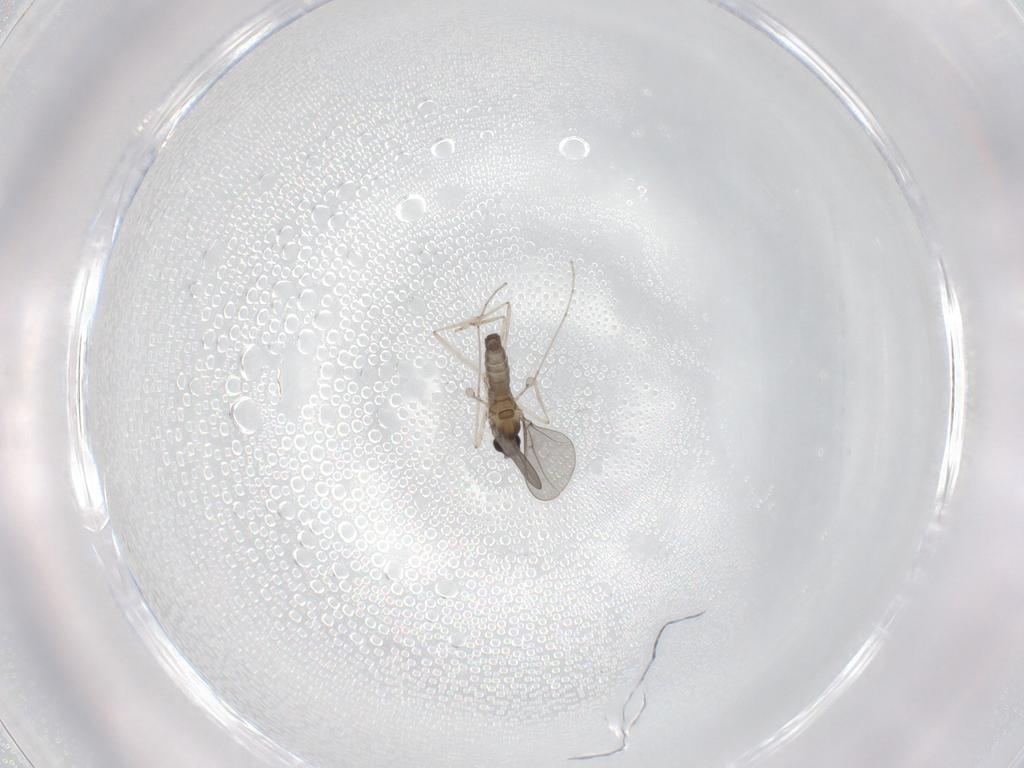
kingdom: Animalia
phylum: Arthropoda
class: Insecta
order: Diptera
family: Cecidomyiidae
